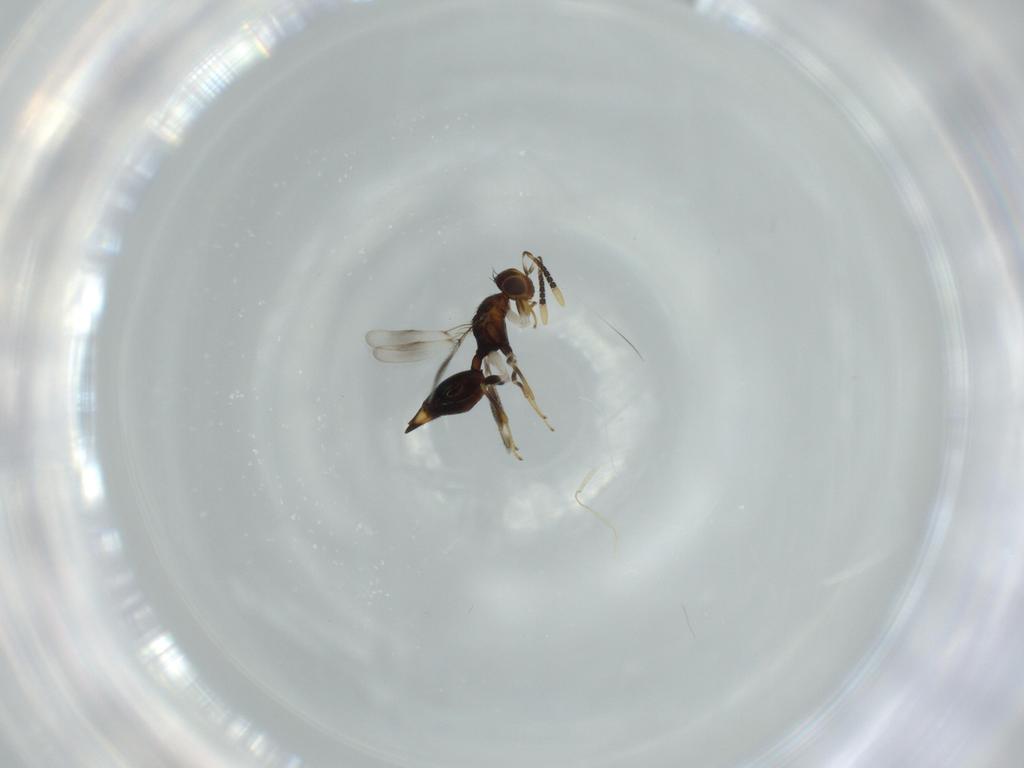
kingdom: Animalia
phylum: Arthropoda
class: Insecta
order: Hymenoptera
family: Diparidae
